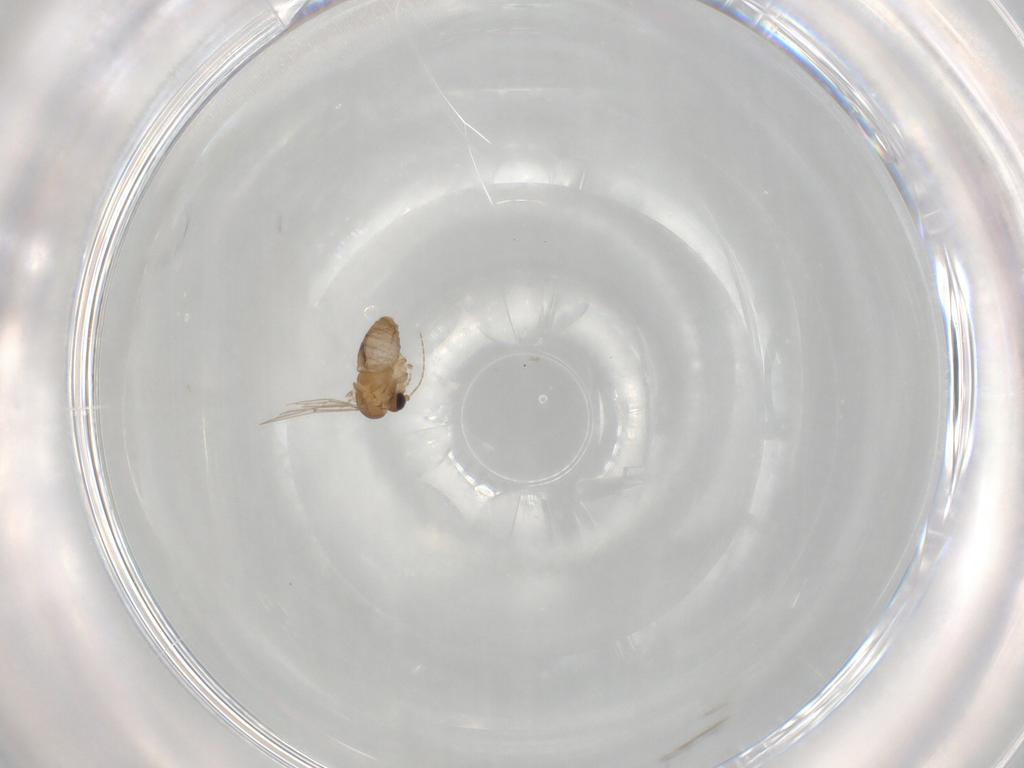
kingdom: Animalia
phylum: Arthropoda
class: Insecta
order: Diptera
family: Psychodidae
